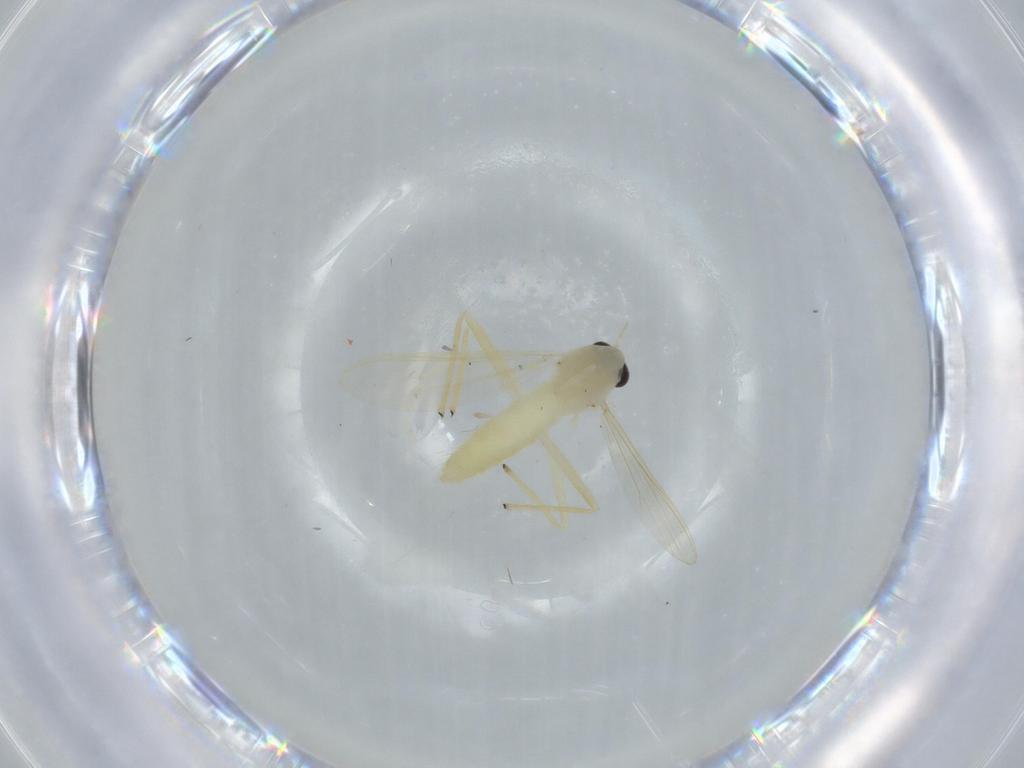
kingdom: Animalia
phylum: Arthropoda
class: Insecta
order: Diptera
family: Chironomidae
